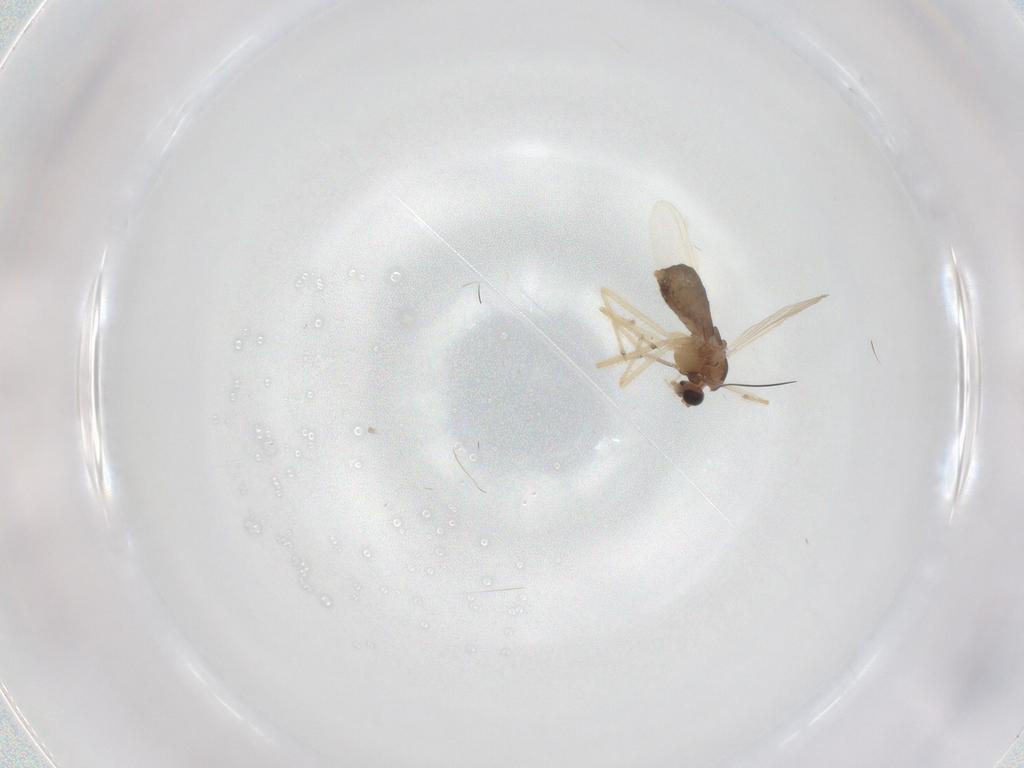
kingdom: Animalia
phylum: Arthropoda
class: Insecta
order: Diptera
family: Chironomidae
